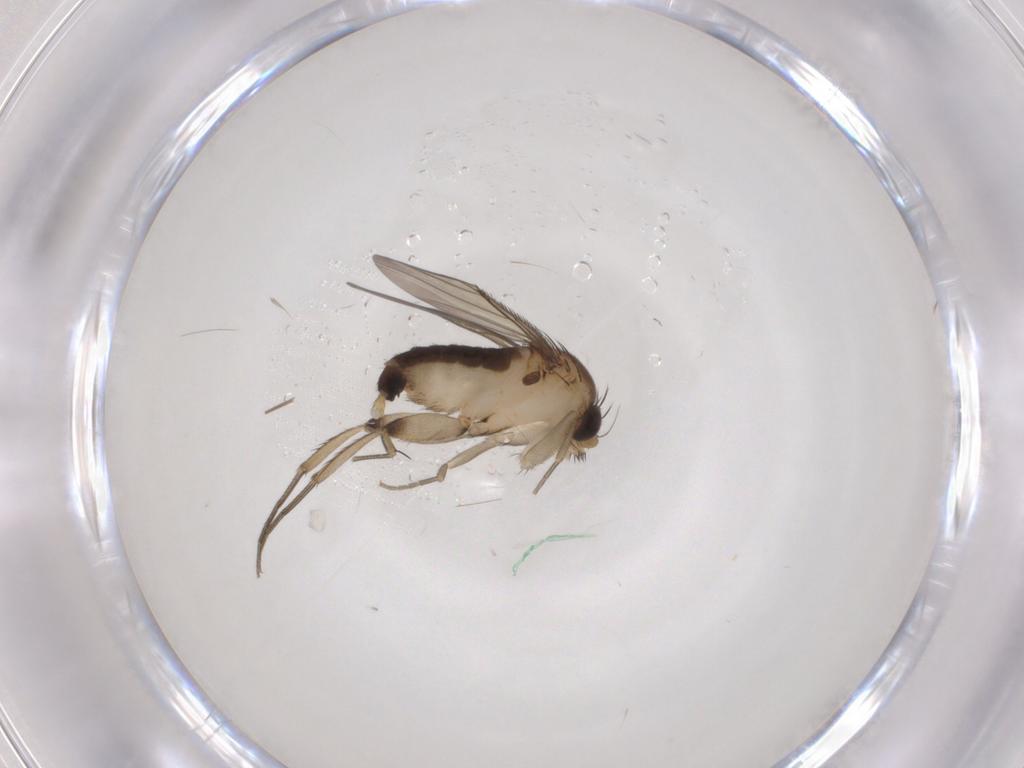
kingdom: Animalia
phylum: Arthropoda
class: Insecta
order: Diptera
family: Sphaeroceridae
